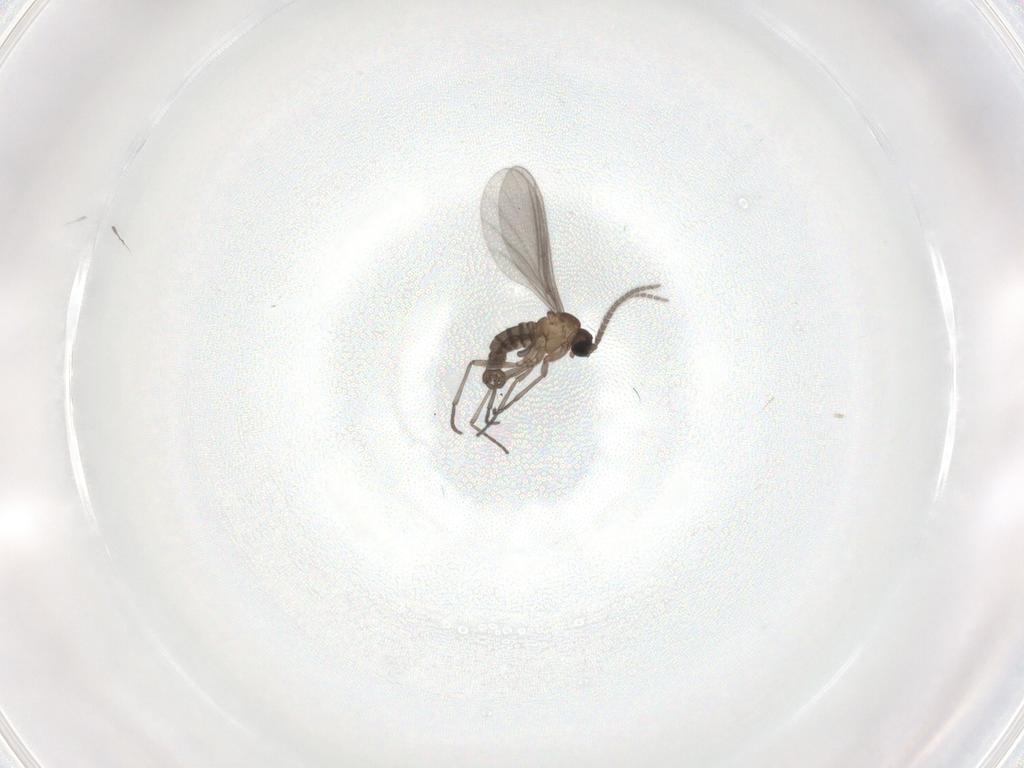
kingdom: Animalia
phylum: Arthropoda
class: Insecta
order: Diptera
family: Sciaridae
